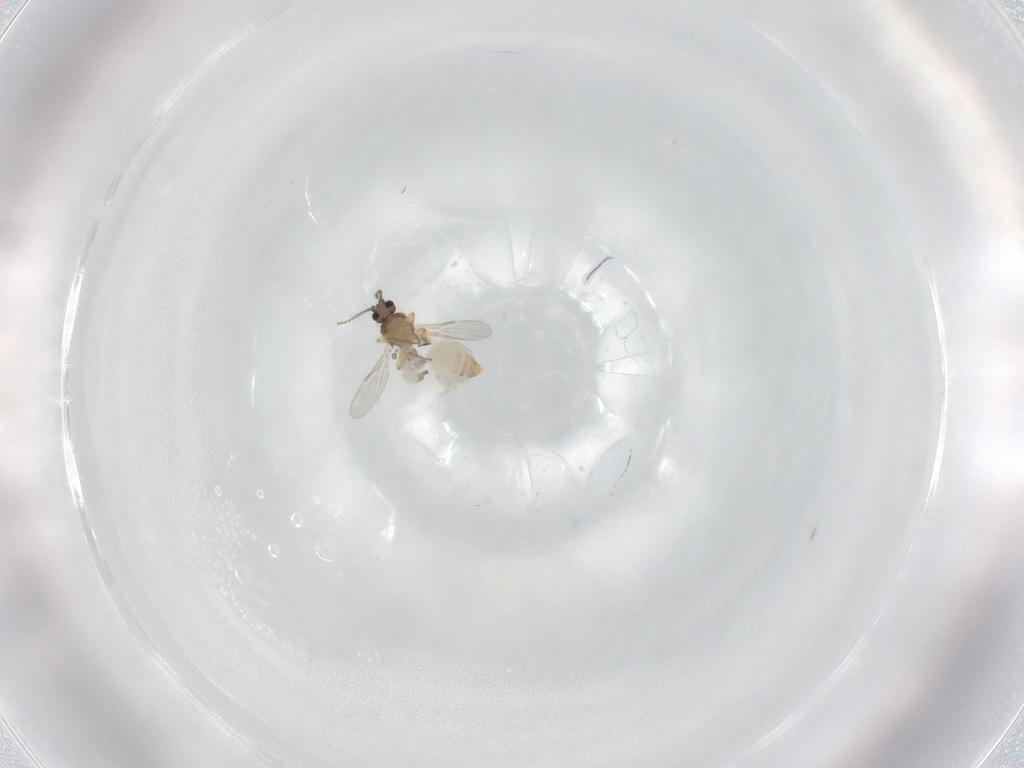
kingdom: Animalia
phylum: Arthropoda
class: Insecta
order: Diptera
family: Ceratopogonidae
